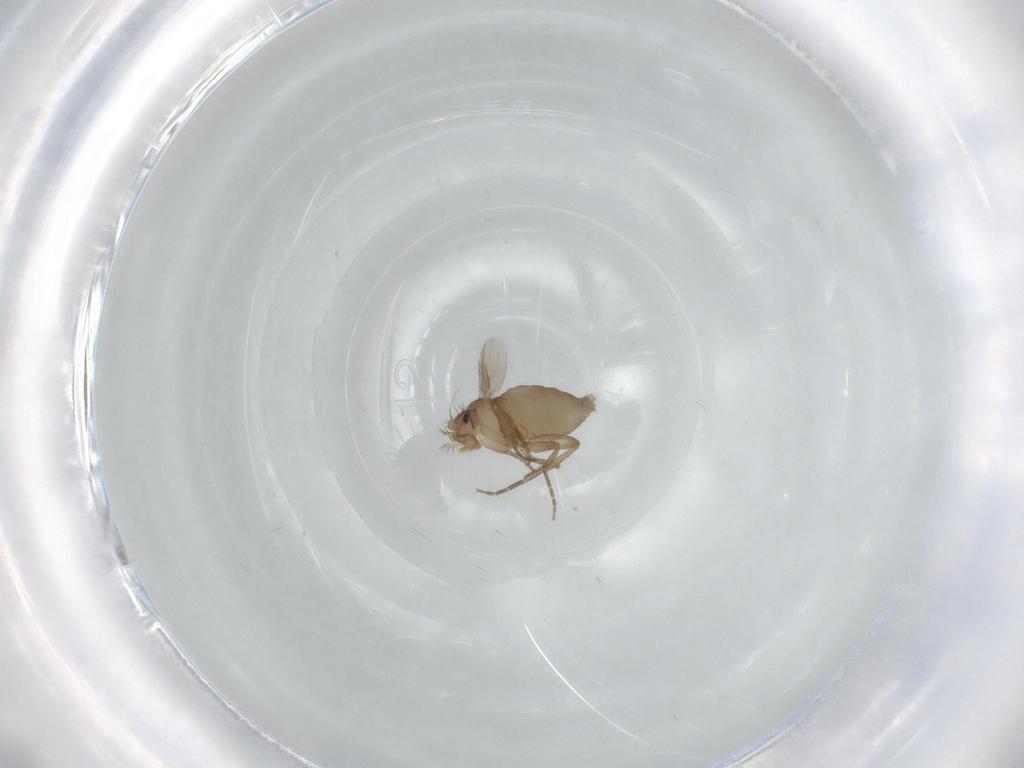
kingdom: Animalia
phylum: Arthropoda
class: Insecta
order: Diptera
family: Phoridae
